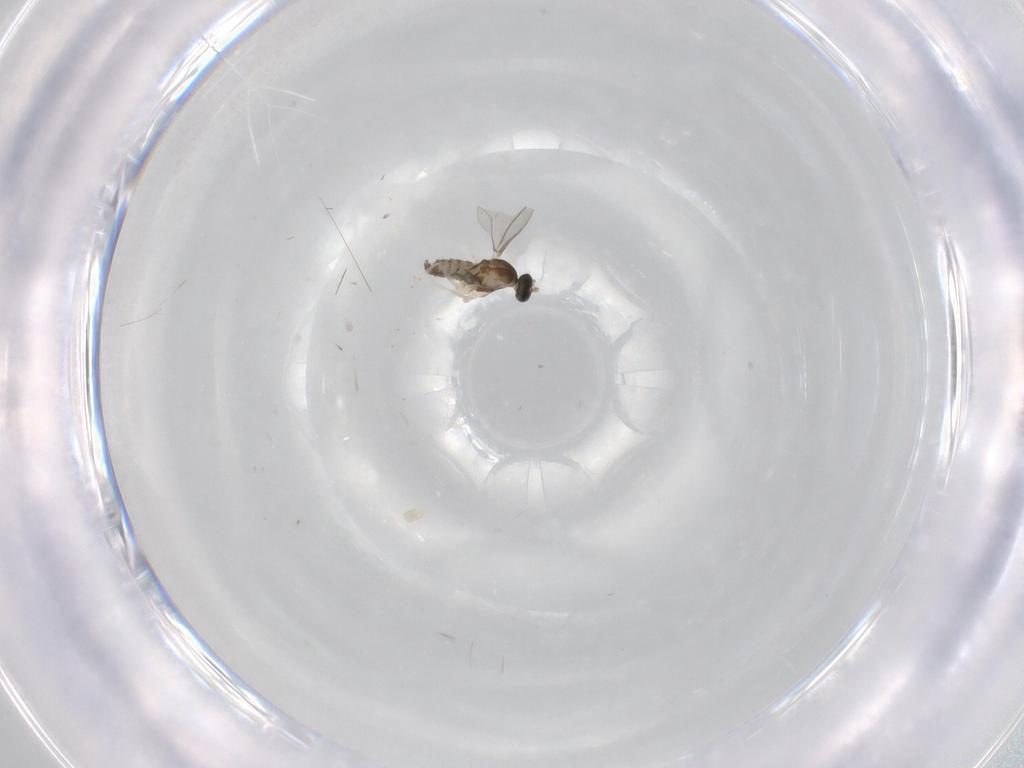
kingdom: Animalia
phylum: Arthropoda
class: Insecta
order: Diptera
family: Cecidomyiidae
